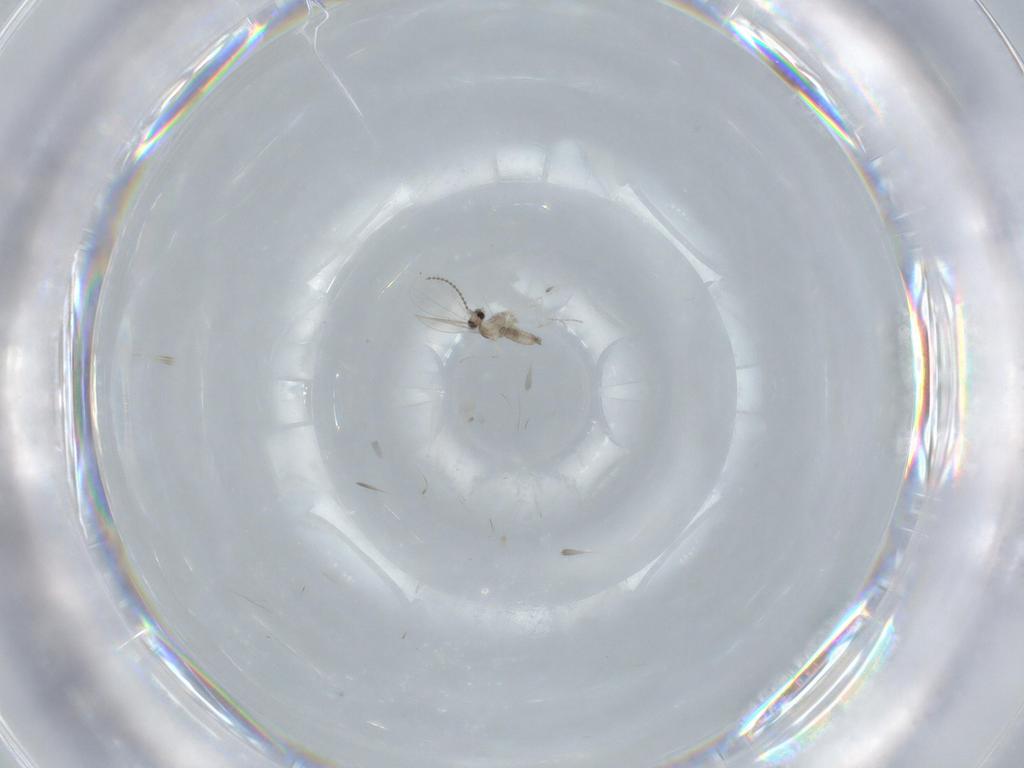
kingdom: Animalia
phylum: Arthropoda
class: Insecta
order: Diptera
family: Cecidomyiidae
